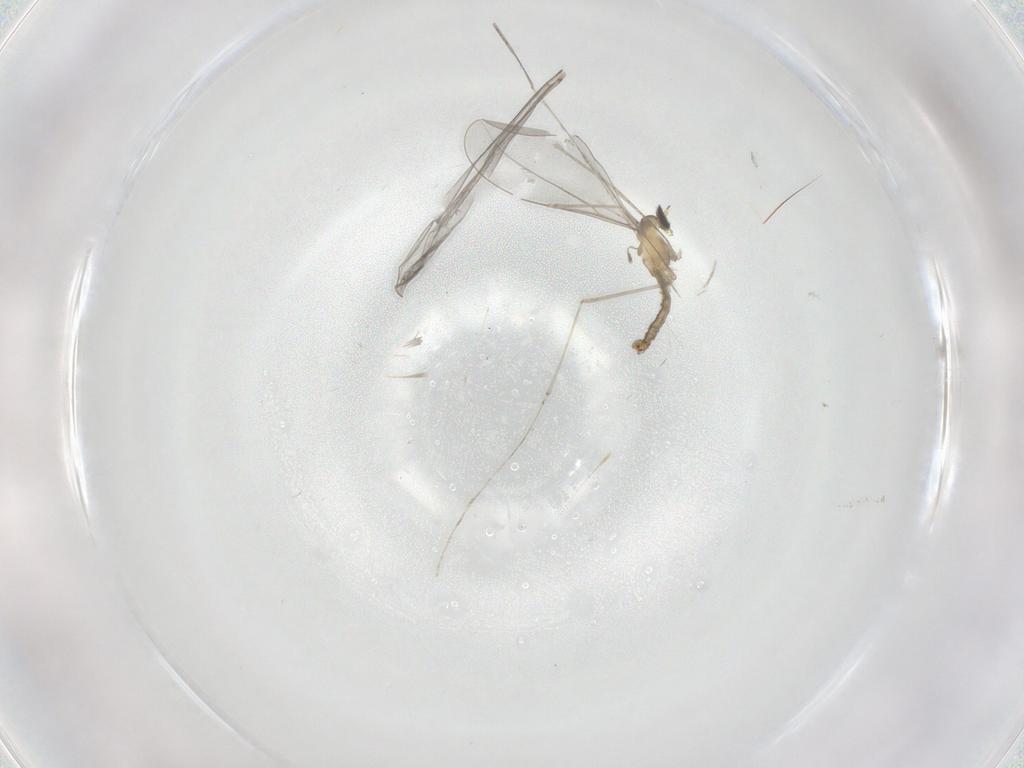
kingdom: Animalia
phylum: Arthropoda
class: Insecta
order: Diptera
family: Cecidomyiidae
